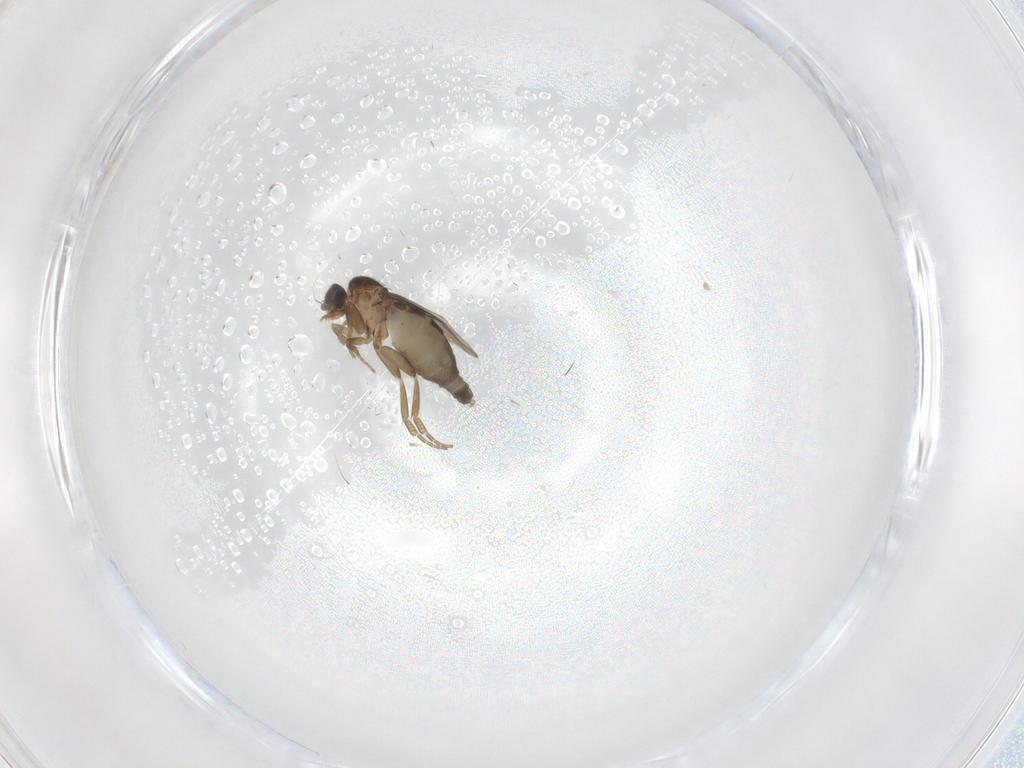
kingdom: Animalia
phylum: Arthropoda
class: Insecta
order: Diptera
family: Phoridae
